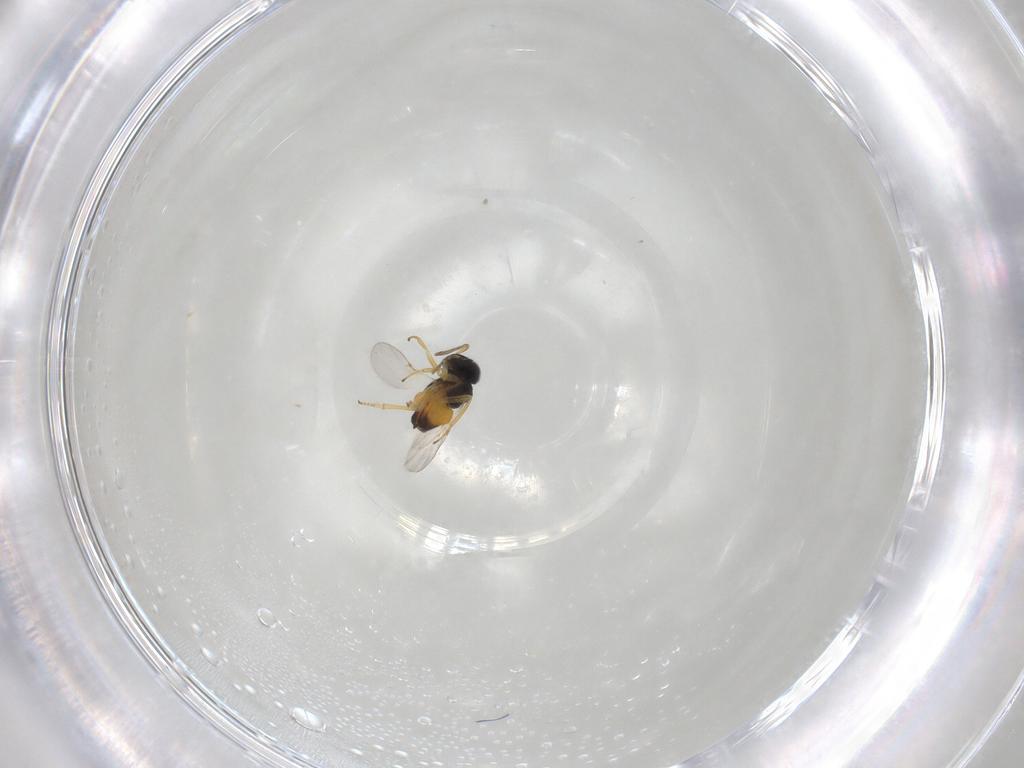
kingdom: Animalia
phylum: Arthropoda
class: Insecta
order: Hymenoptera
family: Encyrtidae
